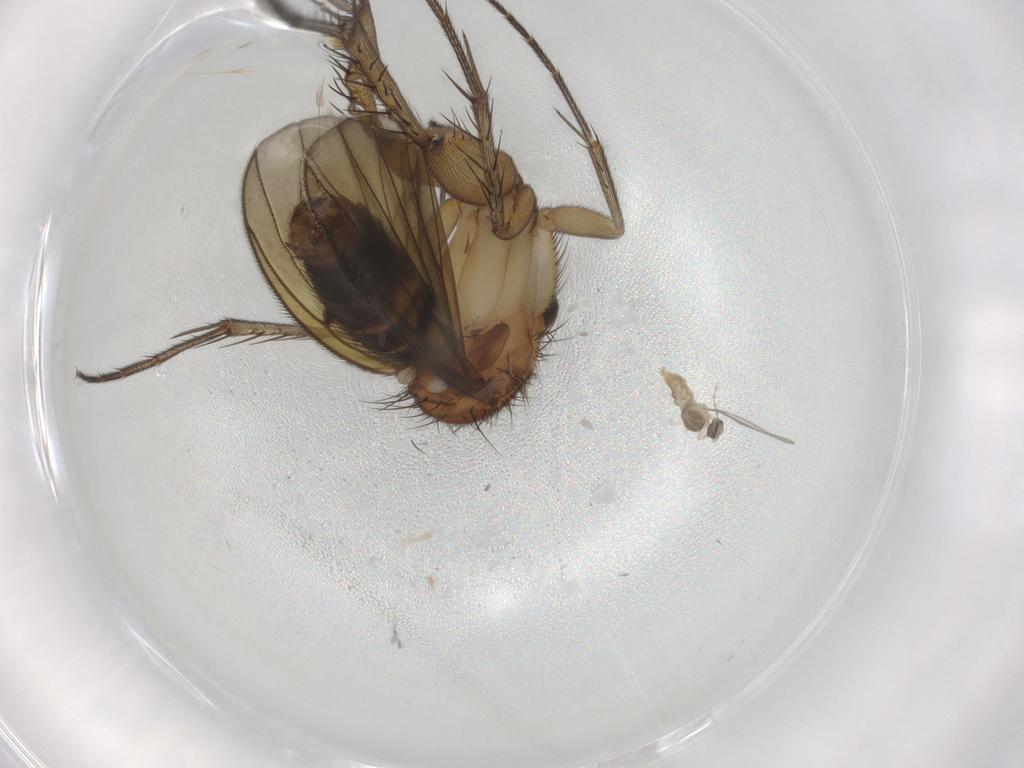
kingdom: Animalia
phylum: Arthropoda
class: Insecta
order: Diptera
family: Mycetophilidae
